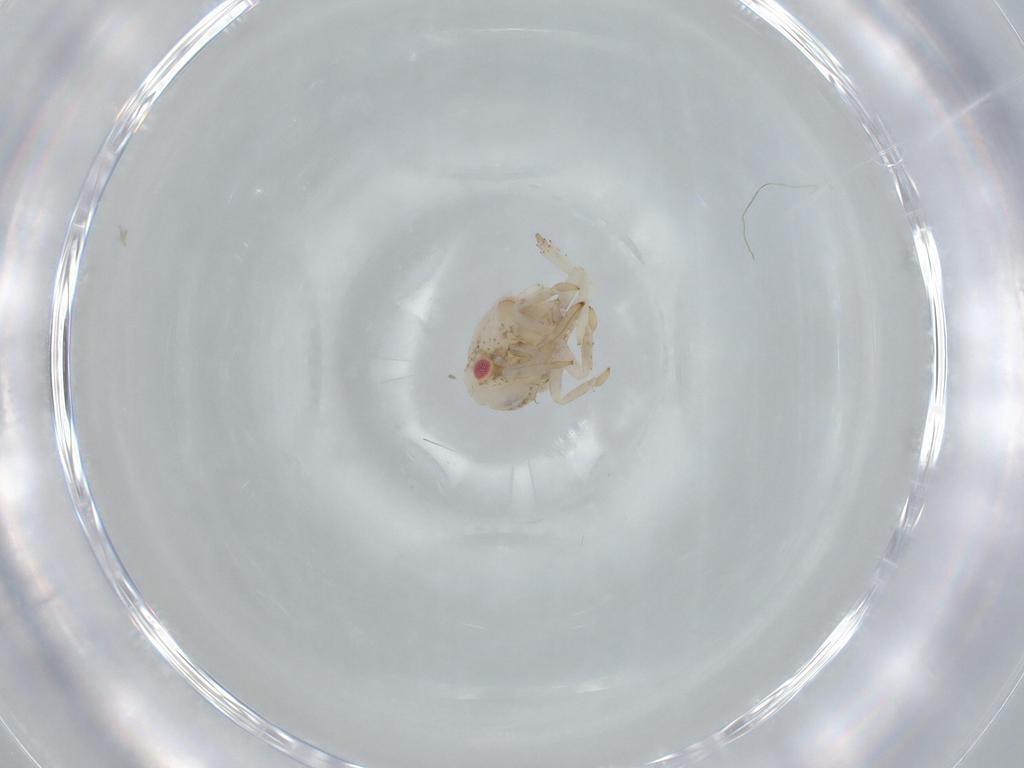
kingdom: Animalia
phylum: Arthropoda
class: Insecta
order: Hemiptera
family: Acanaloniidae
